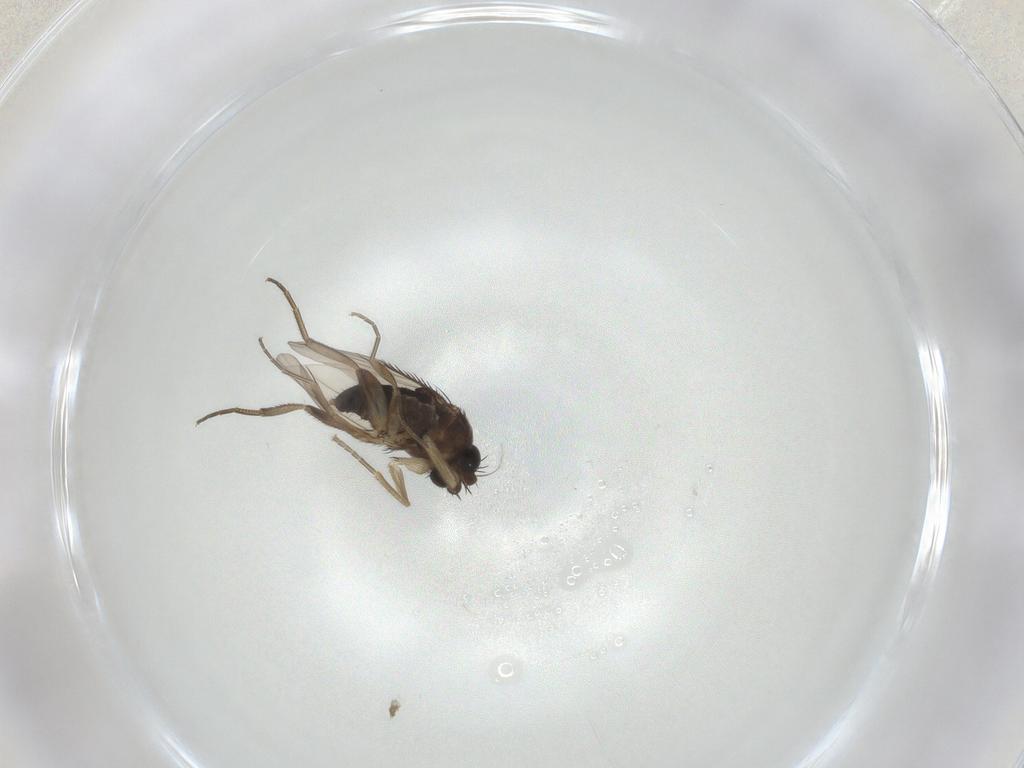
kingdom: Animalia
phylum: Arthropoda
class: Insecta
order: Diptera
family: Phoridae
